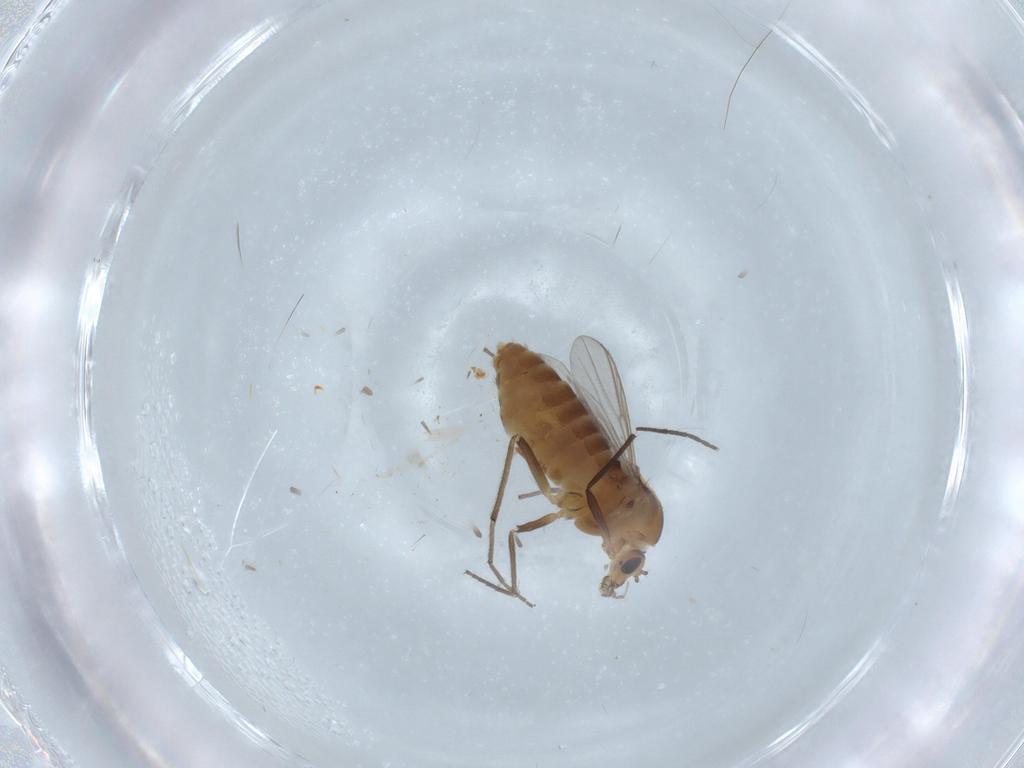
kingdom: Animalia
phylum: Arthropoda
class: Insecta
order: Diptera
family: Chironomidae
